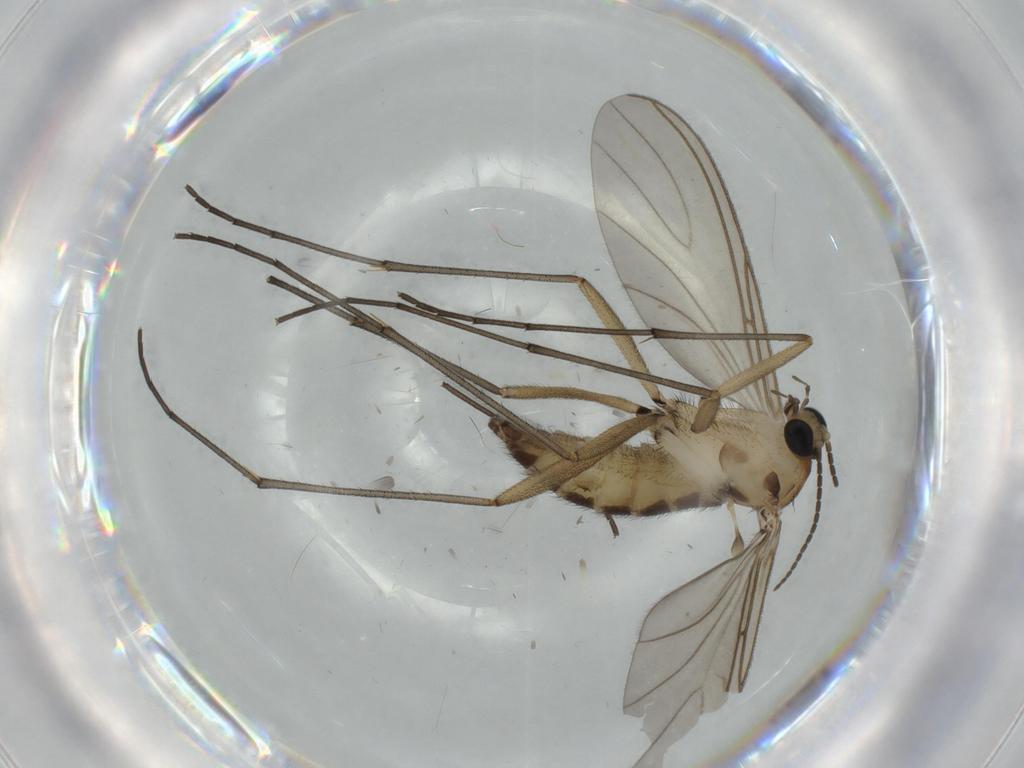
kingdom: Animalia
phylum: Arthropoda
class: Insecta
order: Diptera
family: Sciaridae
